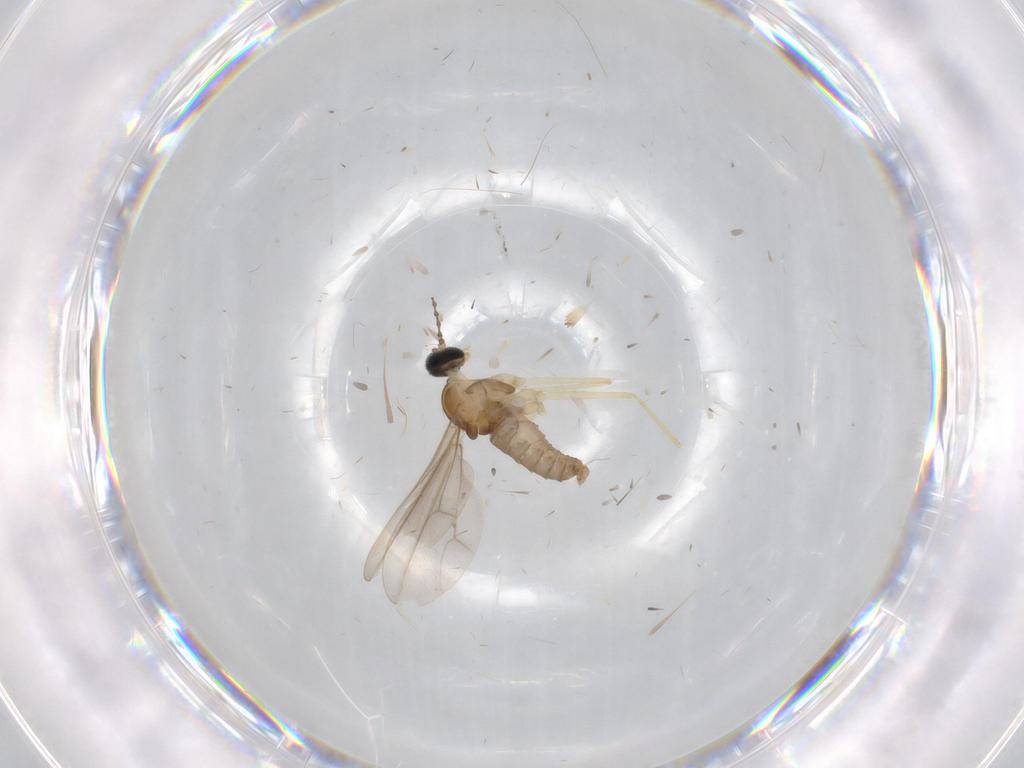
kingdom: Animalia
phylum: Arthropoda
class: Insecta
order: Diptera
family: Cecidomyiidae
